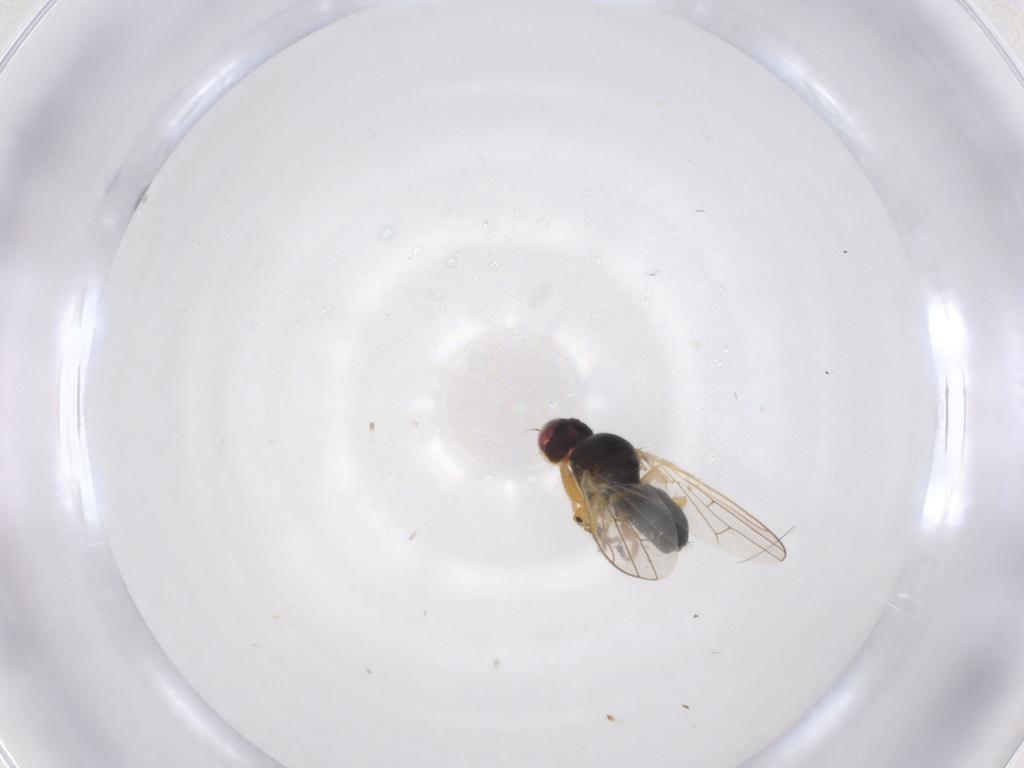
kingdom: Animalia
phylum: Arthropoda
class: Insecta
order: Diptera
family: Tephritidae
